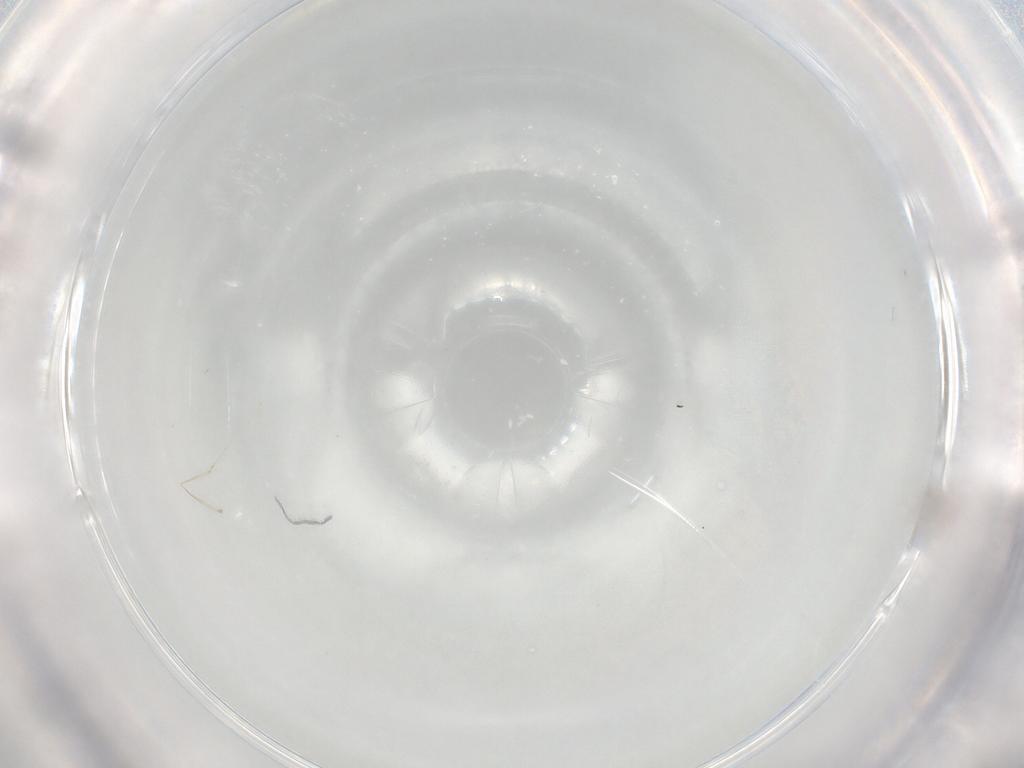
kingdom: Animalia
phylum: Arthropoda
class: Insecta
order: Diptera
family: Cecidomyiidae
